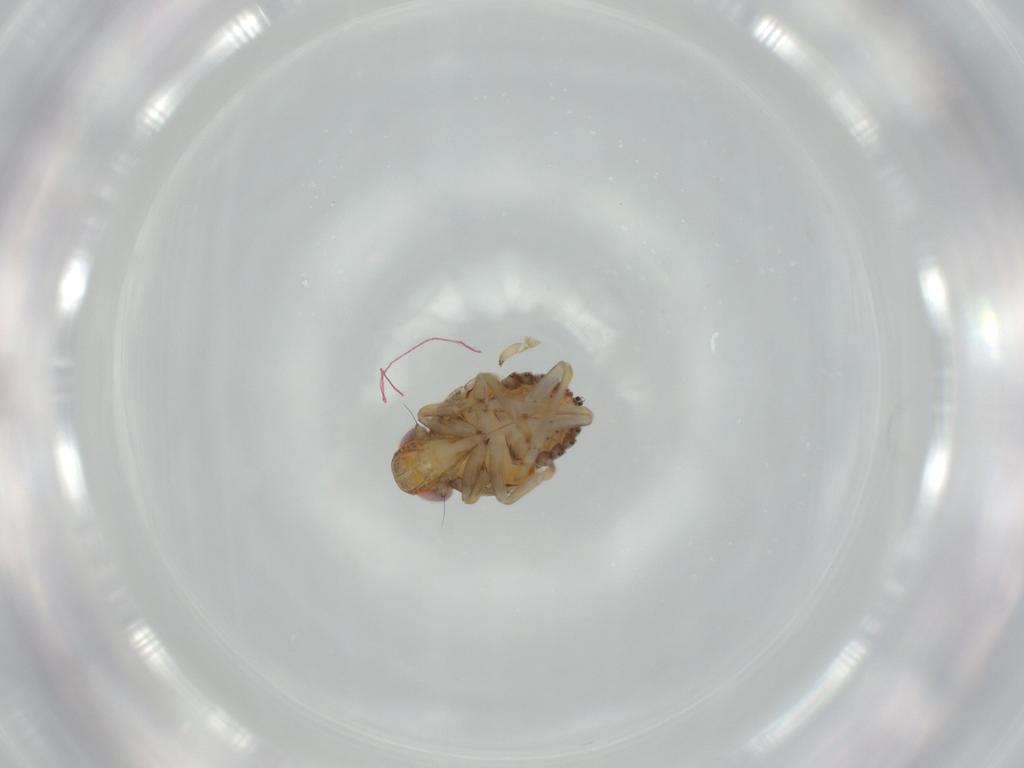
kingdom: Animalia
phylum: Arthropoda
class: Insecta
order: Hemiptera
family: Issidae
